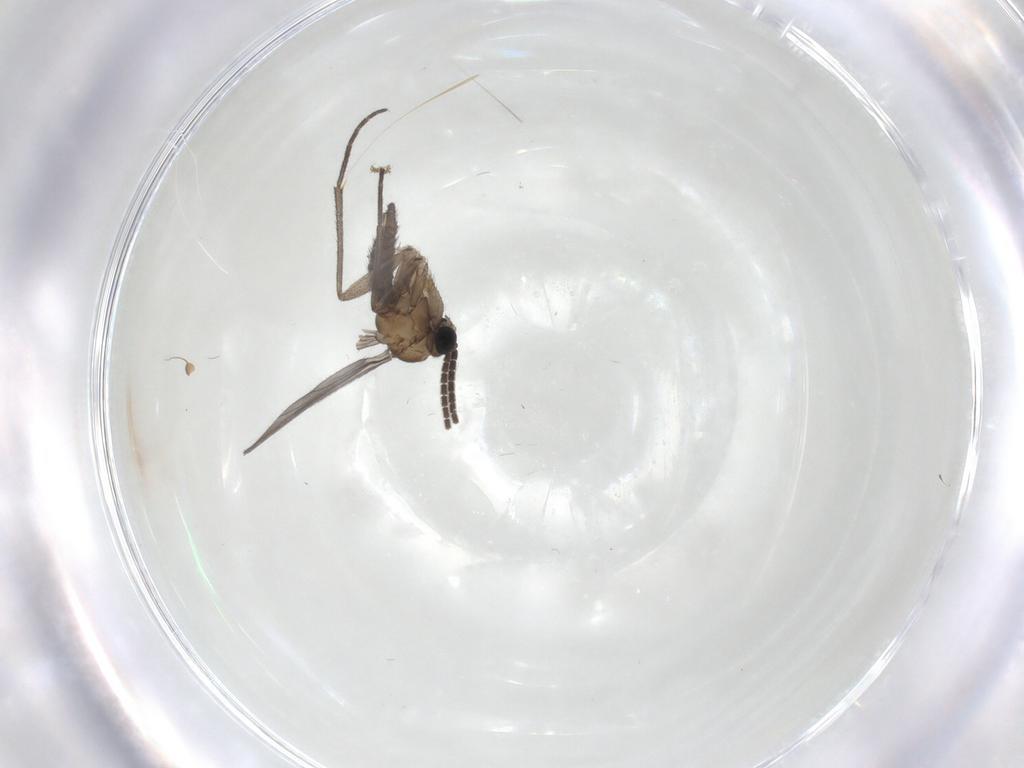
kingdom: Animalia
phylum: Arthropoda
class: Insecta
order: Diptera
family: Sciaridae
